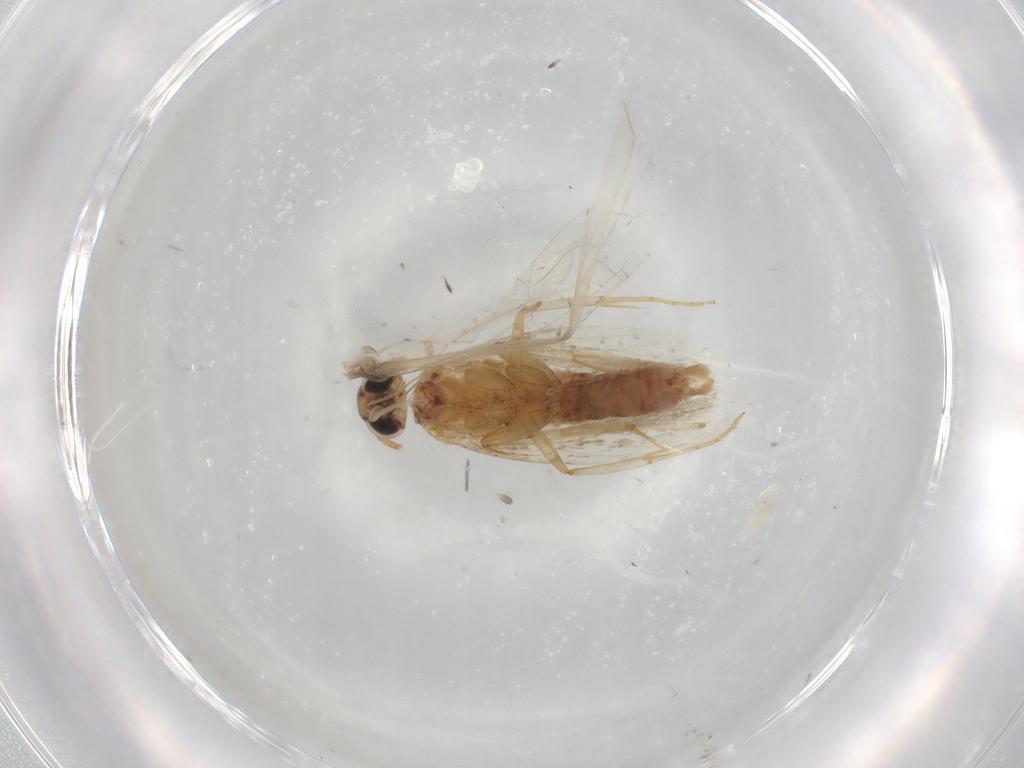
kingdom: Animalia
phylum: Arthropoda
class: Insecta
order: Lepidoptera
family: Plutellidae
